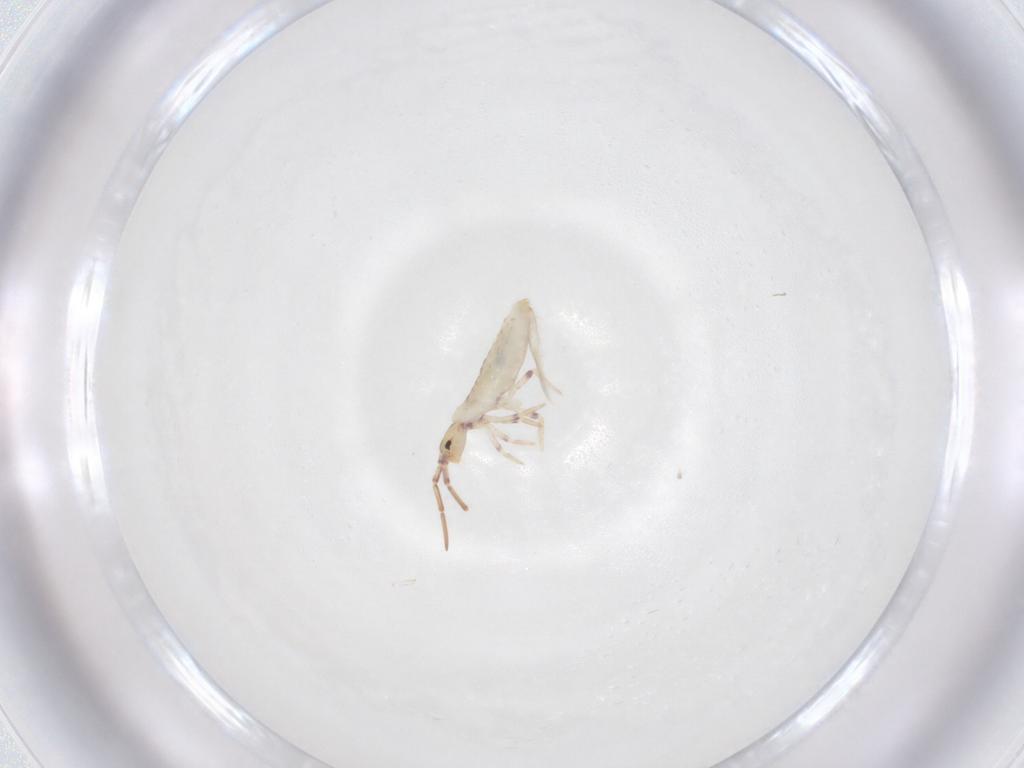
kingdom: Animalia
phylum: Arthropoda
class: Collembola
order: Entomobryomorpha
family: Entomobryidae
